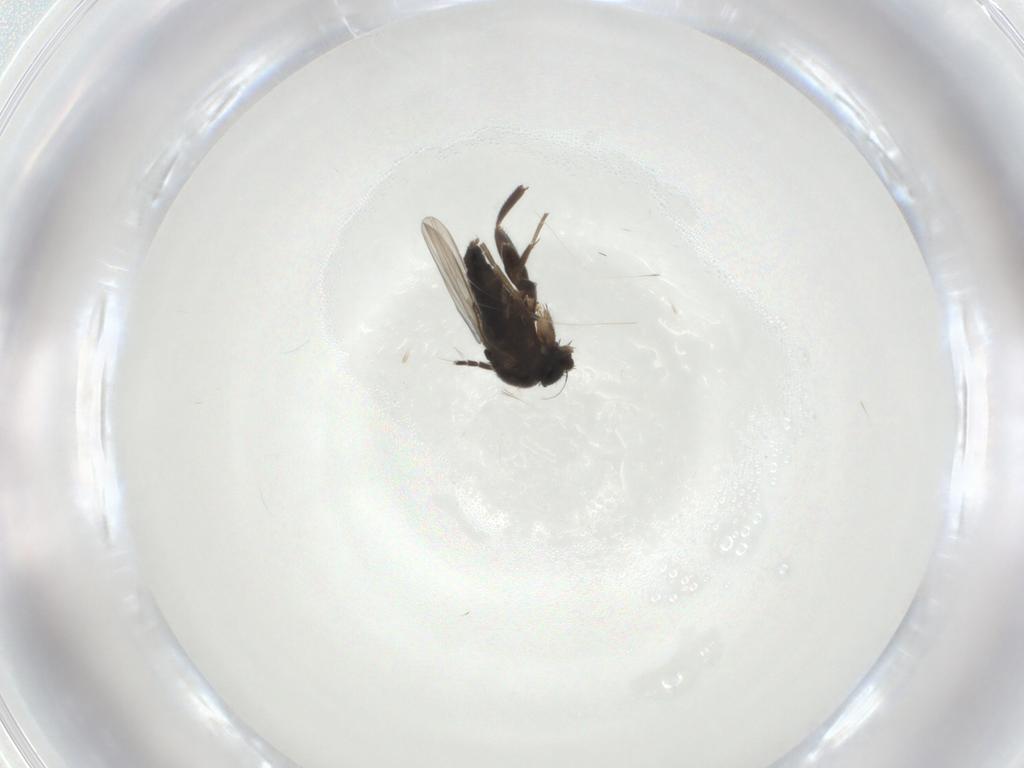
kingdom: Animalia
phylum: Arthropoda
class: Insecta
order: Diptera
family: Phoridae
